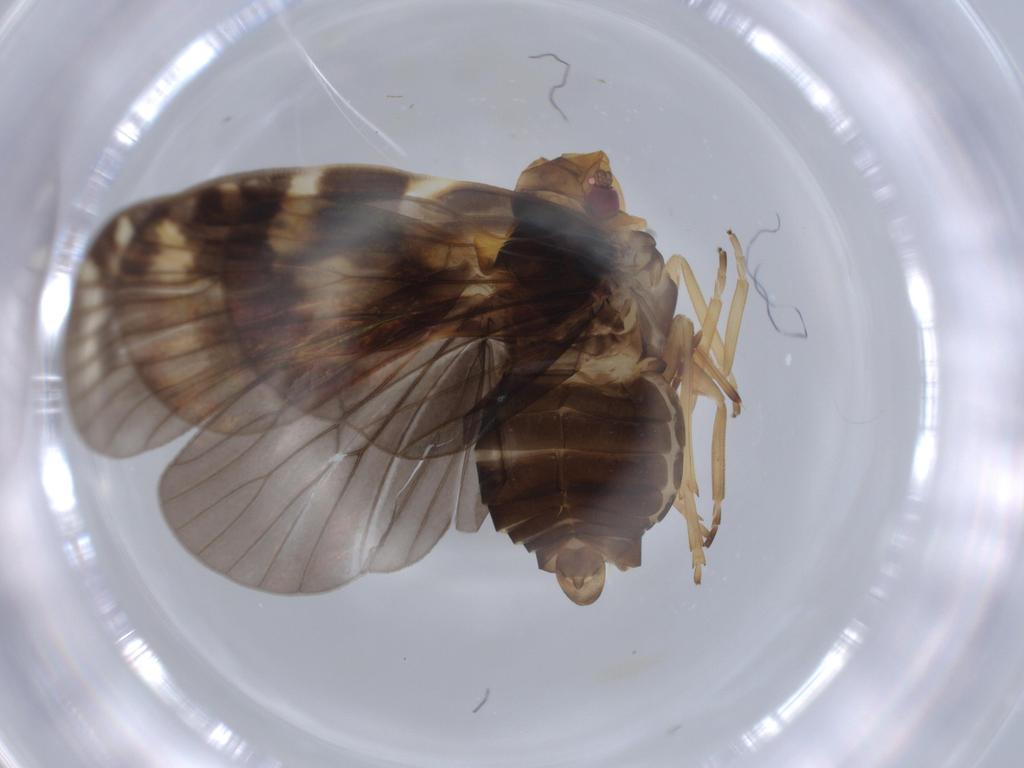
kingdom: Animalia
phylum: Arthropoda
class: Insecta
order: Hemiptera
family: Cixiidae
